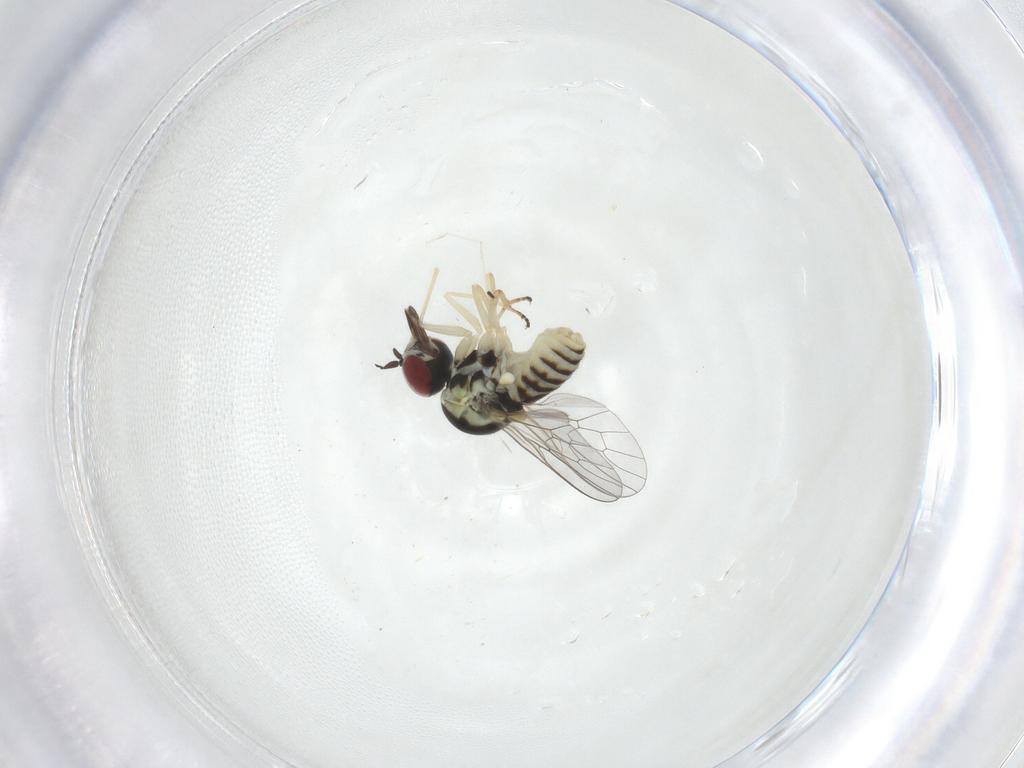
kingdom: Animalia
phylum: Arthropoda
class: Insecta
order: Diptera
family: Bombyliidae
